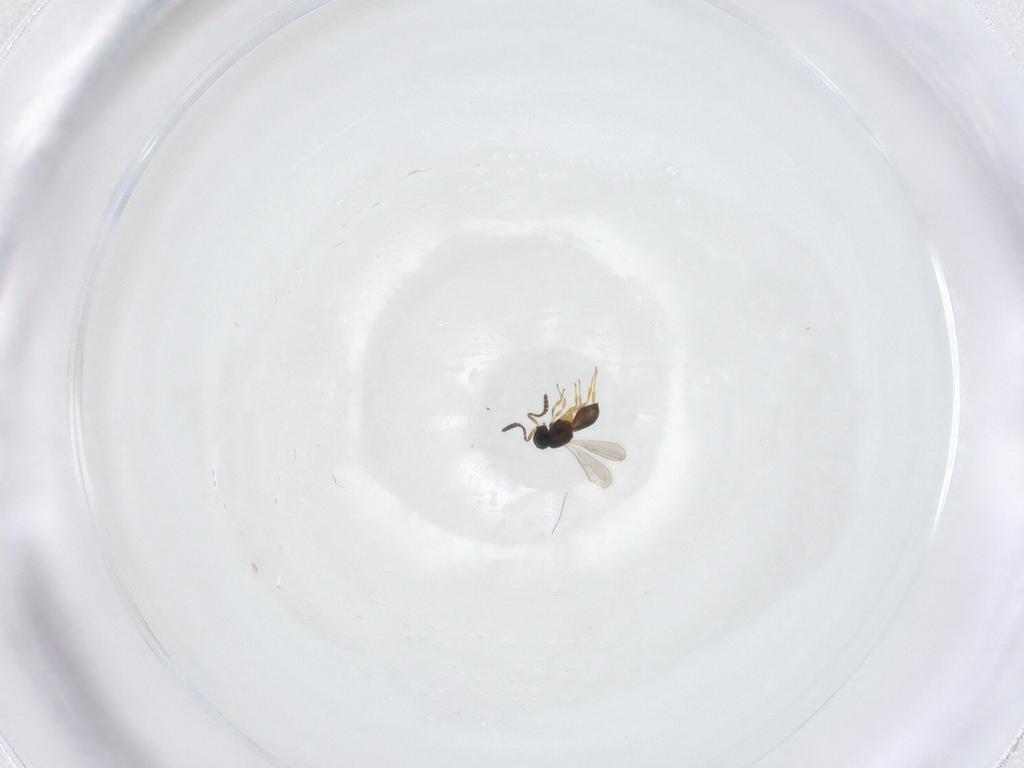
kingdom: Animalia
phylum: Arthropoda
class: Insecta
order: Hymenoptera
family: Scelionidae
